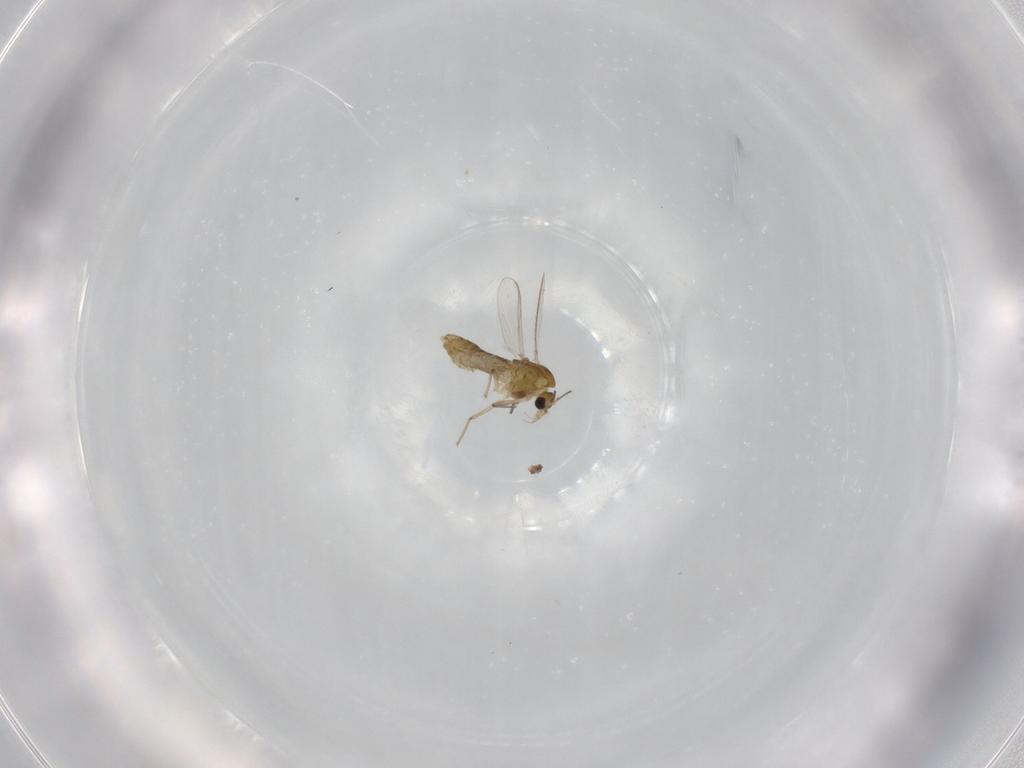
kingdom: Animalia
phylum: Arthropoda
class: Insecta
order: Diptera
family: Chironomidae
